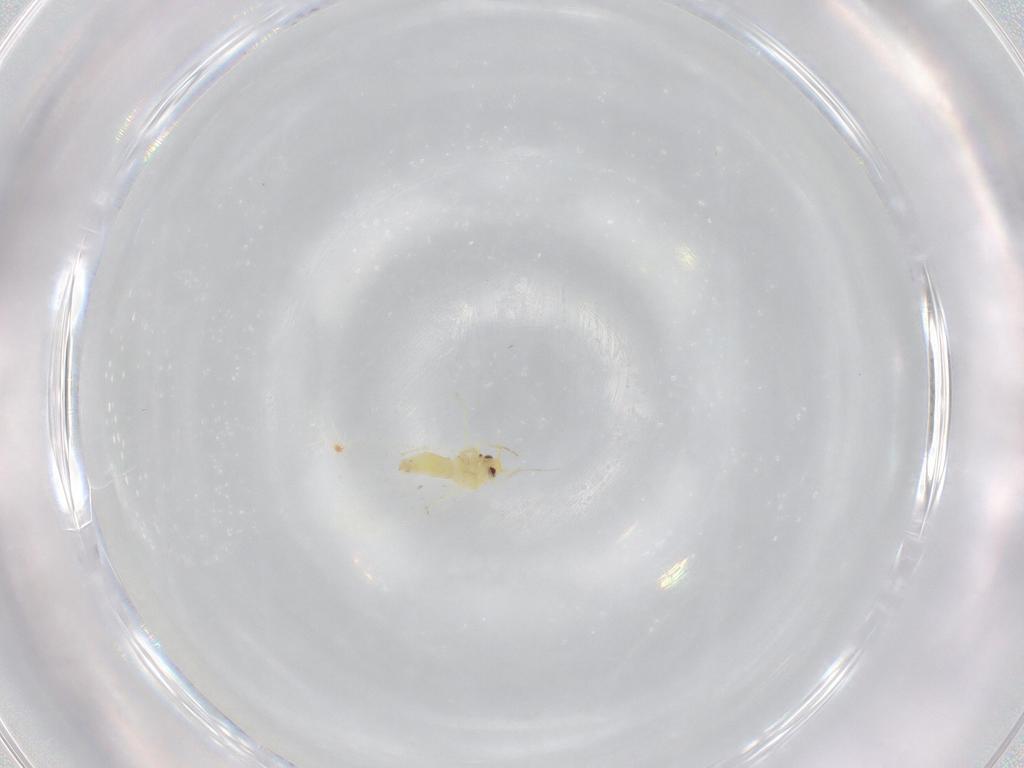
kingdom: Animalia
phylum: Arthropoda
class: Insecta
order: Hemiptera
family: Aleyrodidae
